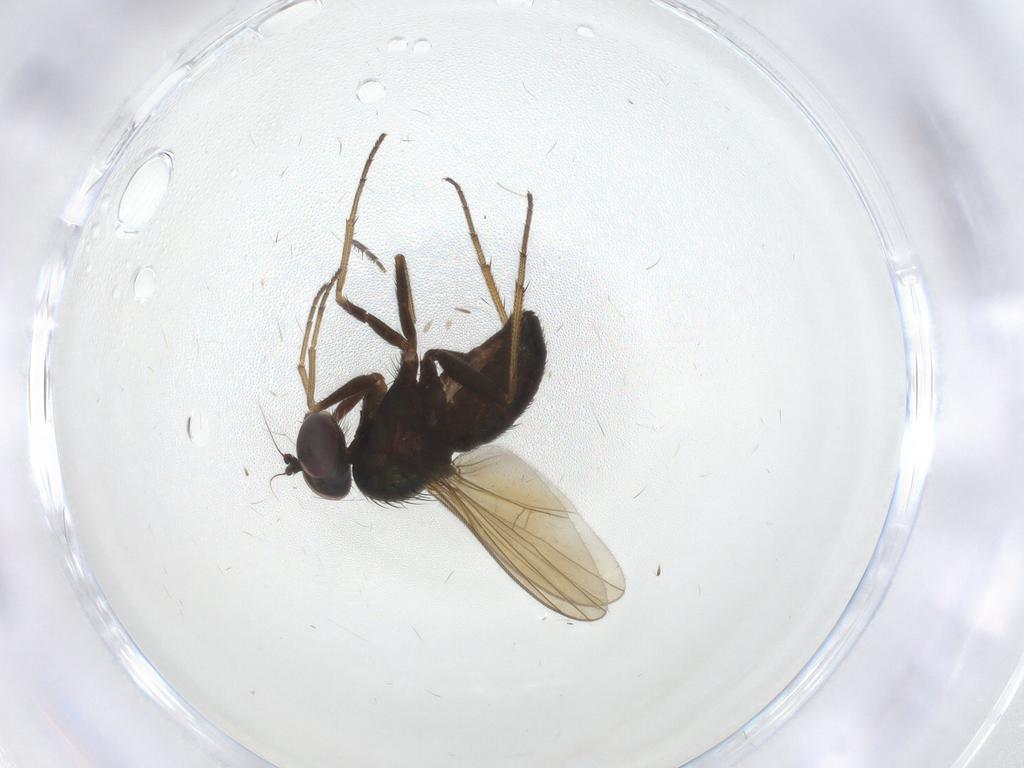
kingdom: Animalia
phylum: Arthropoda
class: Insecta
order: Diptera
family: Dolichopodidae
